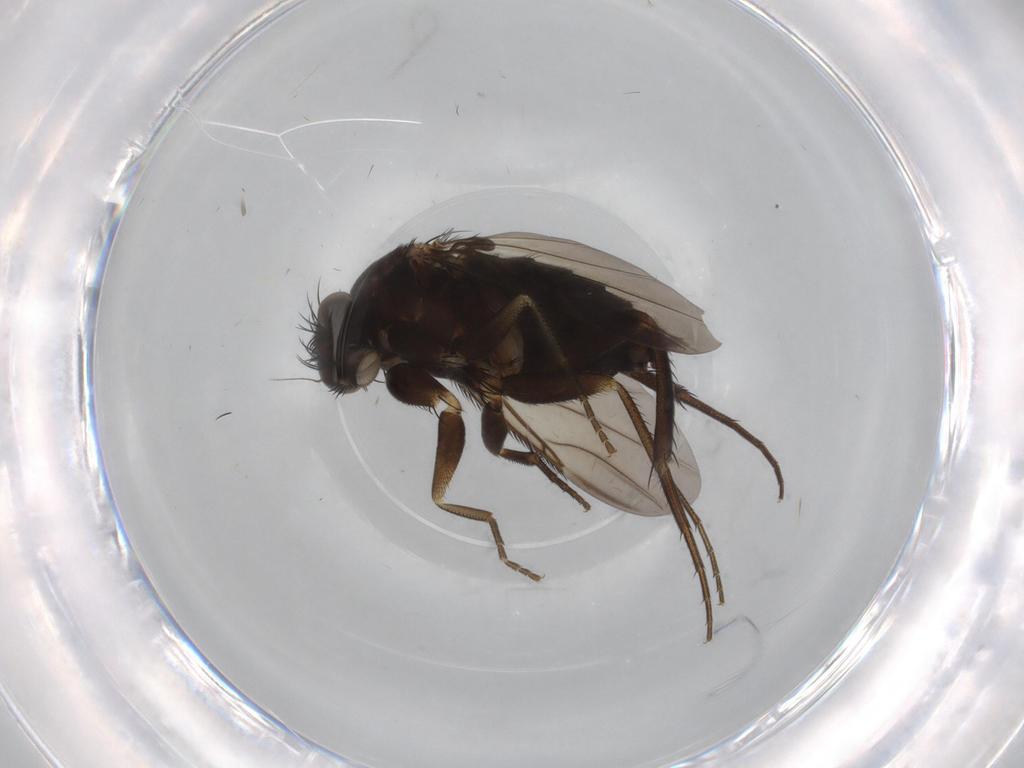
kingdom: Animalia
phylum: Arthropoda
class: Insecta
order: Diptera
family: Phoridae
